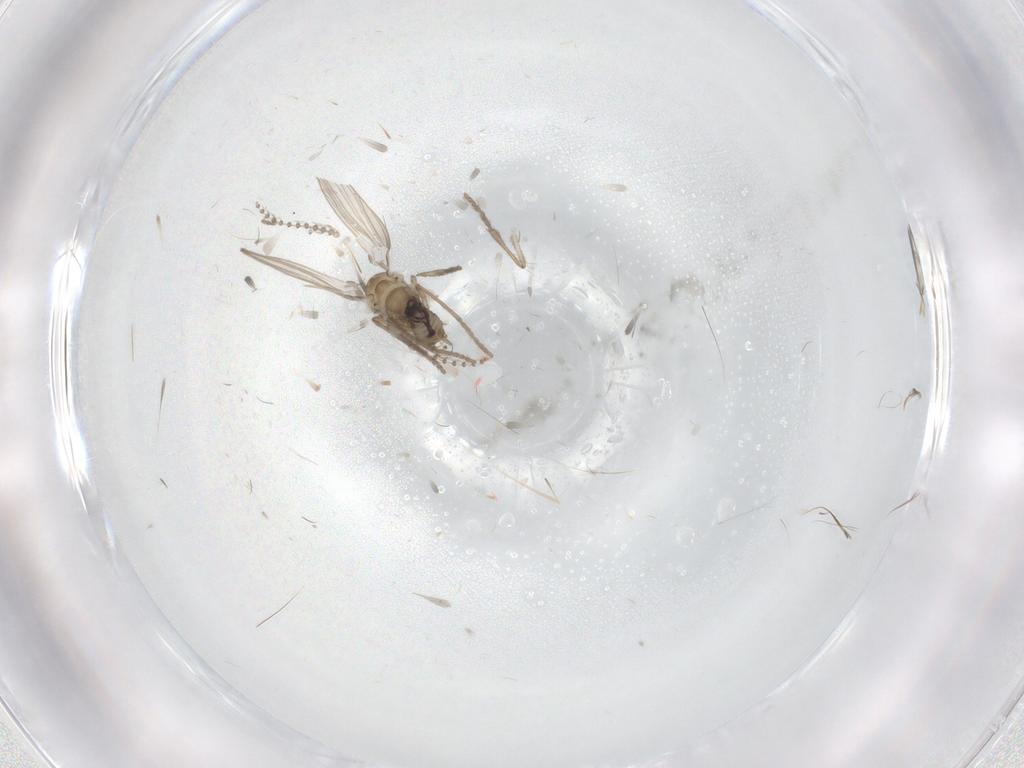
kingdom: Animalia
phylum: Arthropoda
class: Insecta
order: Diptera
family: Psychodidae
